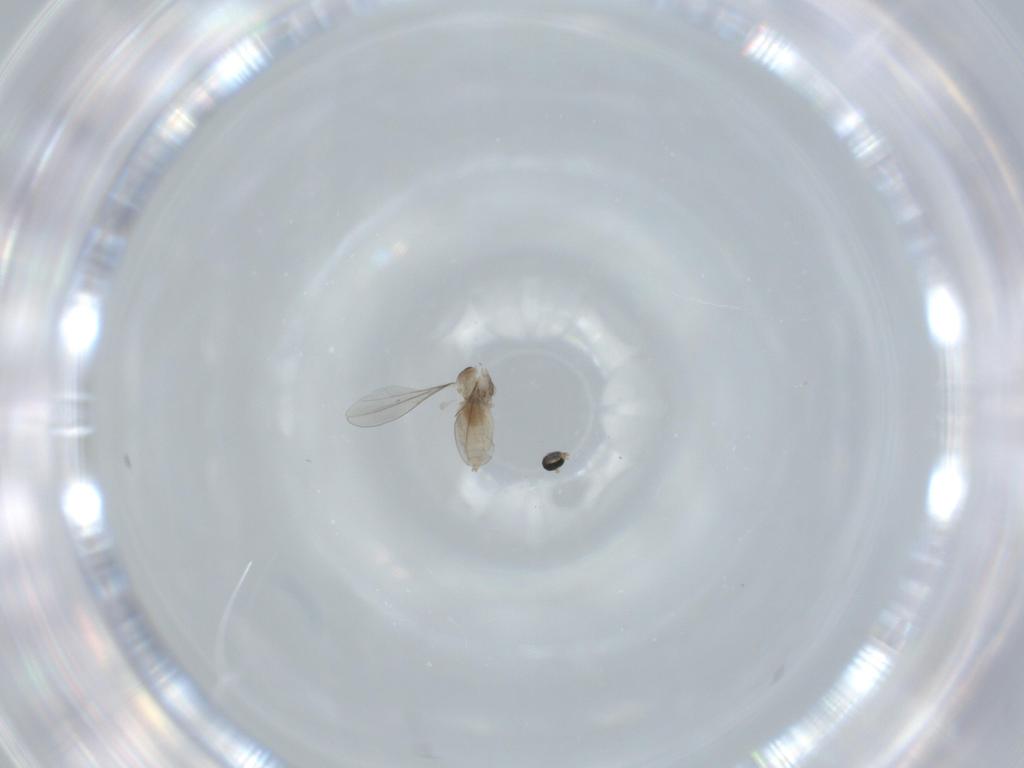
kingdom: Animalia
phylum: Arthropoda
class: Insecta
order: Diptera
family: Cecidomyiidae
